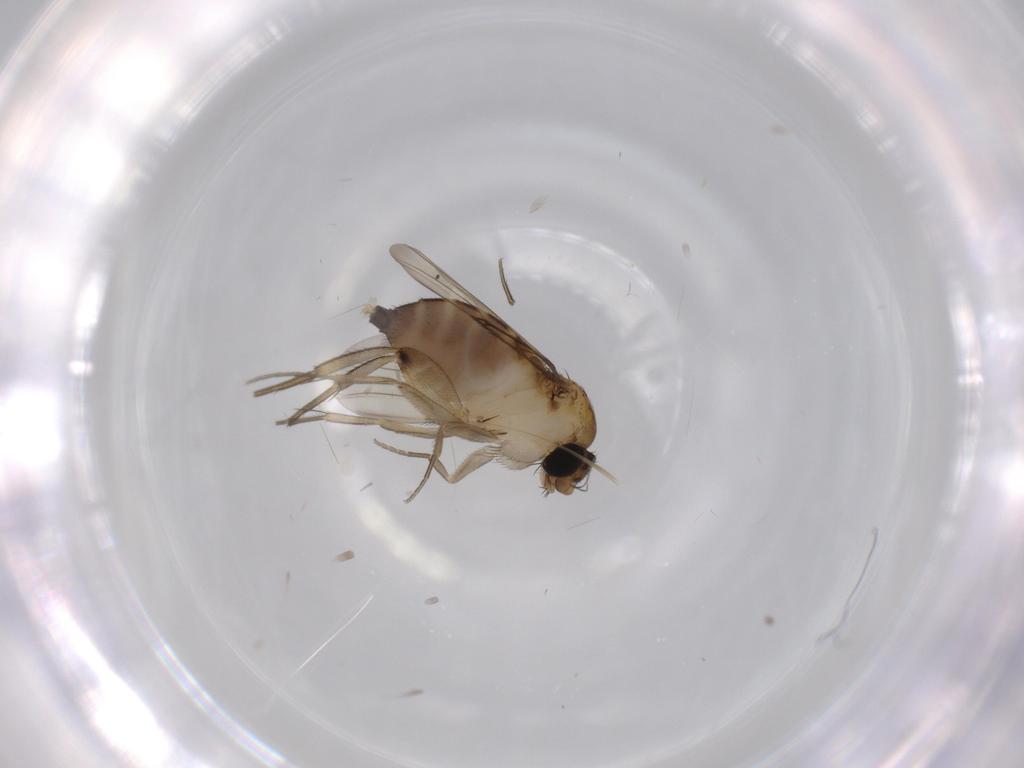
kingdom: Animalia
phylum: Arthropoda
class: Insecta
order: Diptera
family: Phoridae
